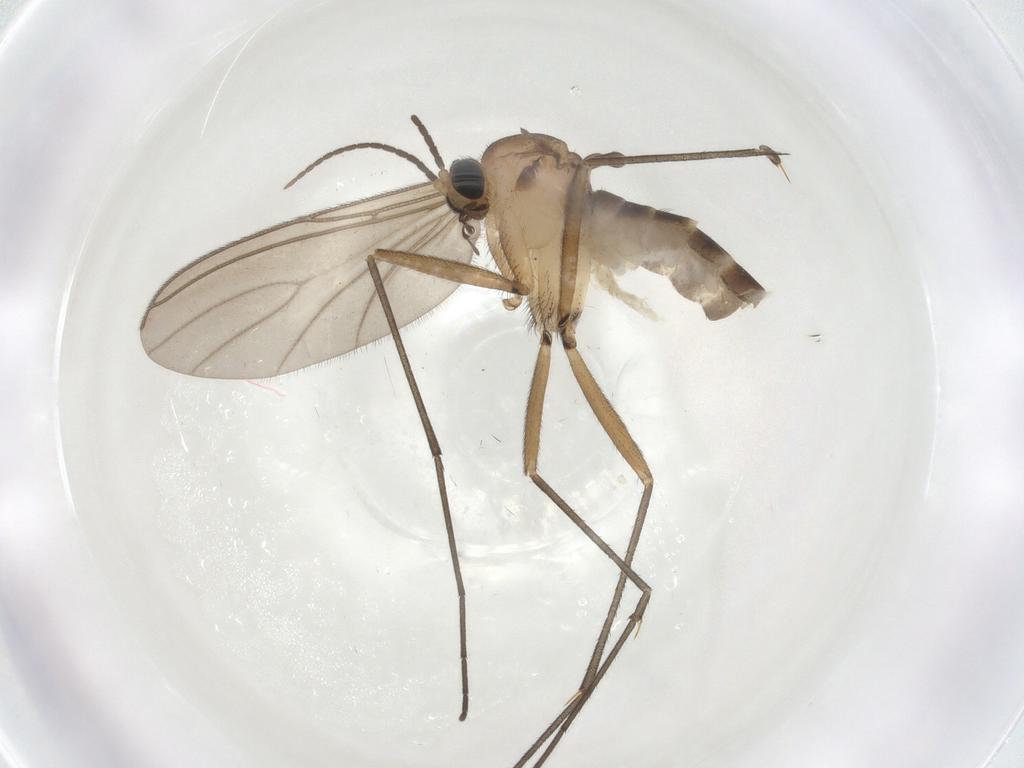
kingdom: Animalia
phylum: Arthropoda
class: Insecta
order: Diptera
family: Sciaridae
